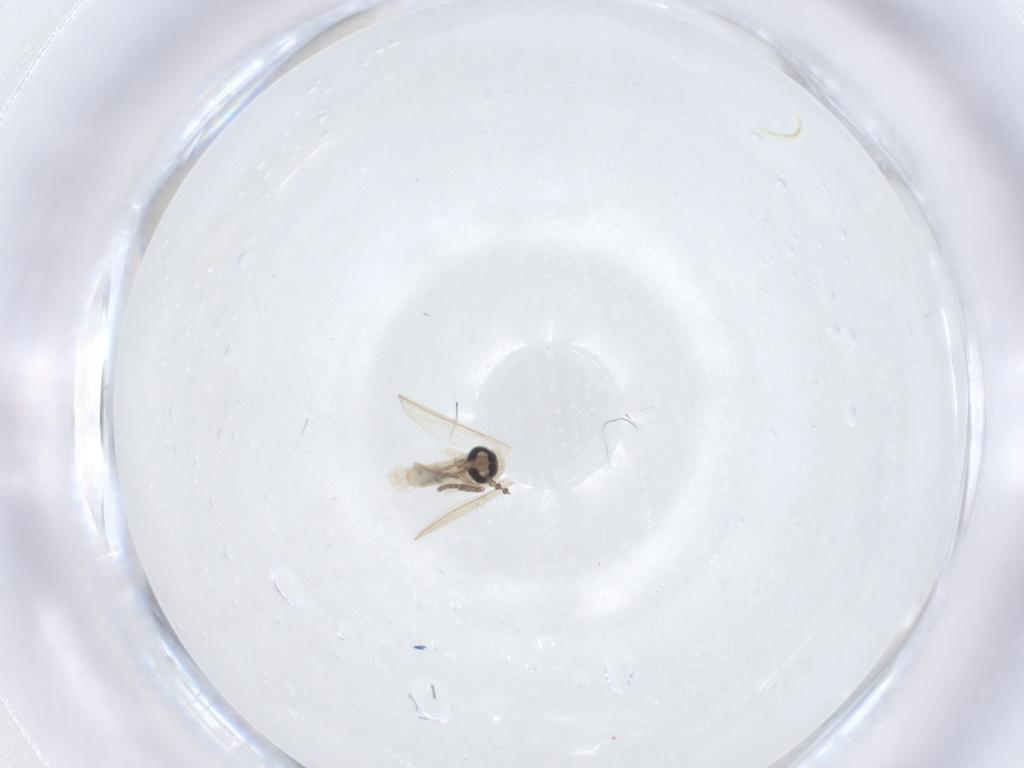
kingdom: Animalia
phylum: Arthropoda
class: Insecta
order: Diptera
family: Psychodidae
